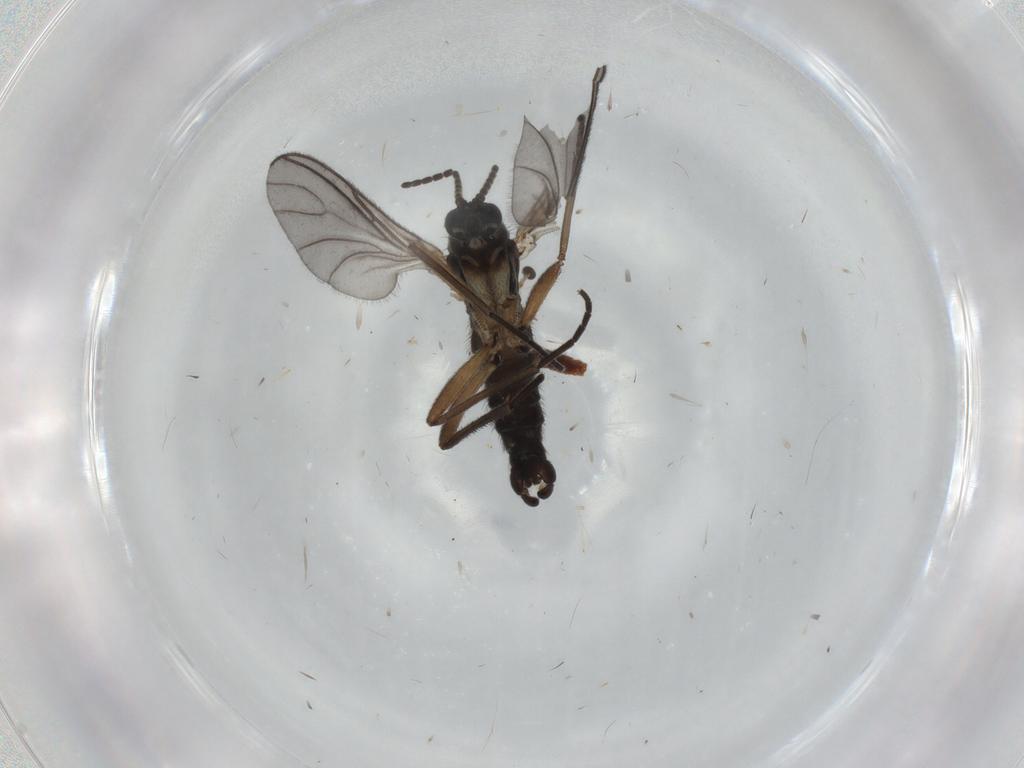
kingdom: Animalia
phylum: Arthropoda
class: Insecta
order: Diptera
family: Sciaridae
